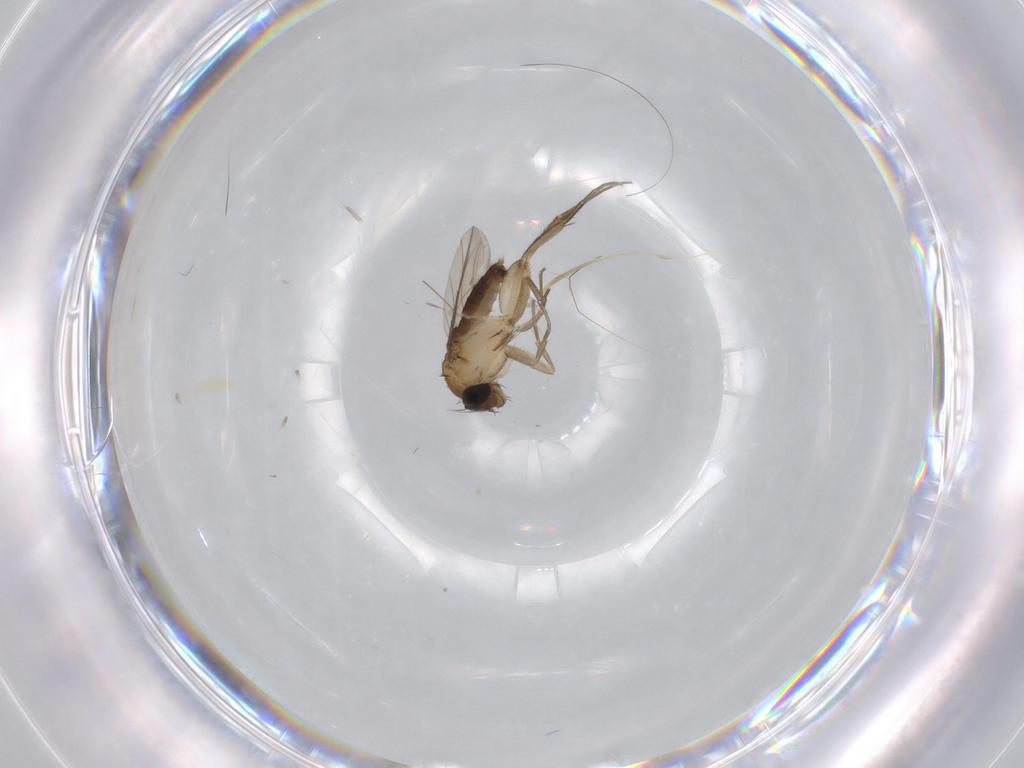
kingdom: Animalia
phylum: Arthropoda
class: Insecta
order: Diptera
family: Phoridae
